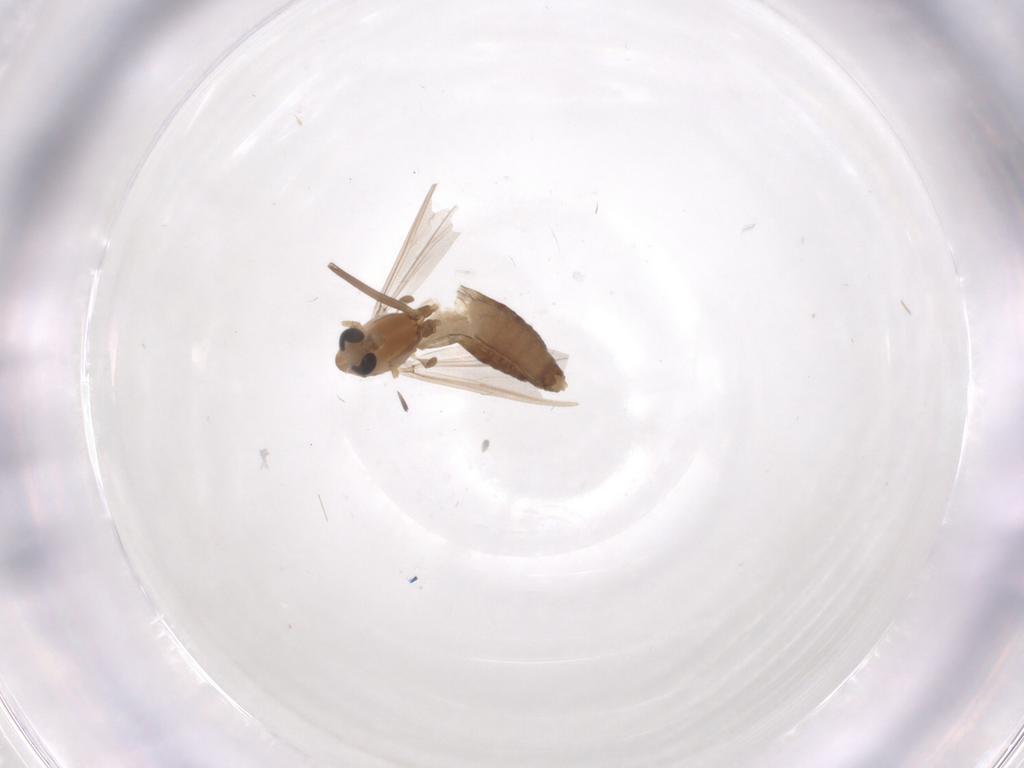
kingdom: Animalia
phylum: Arthropoda
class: Insecta
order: Diptera
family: Chironomidae
